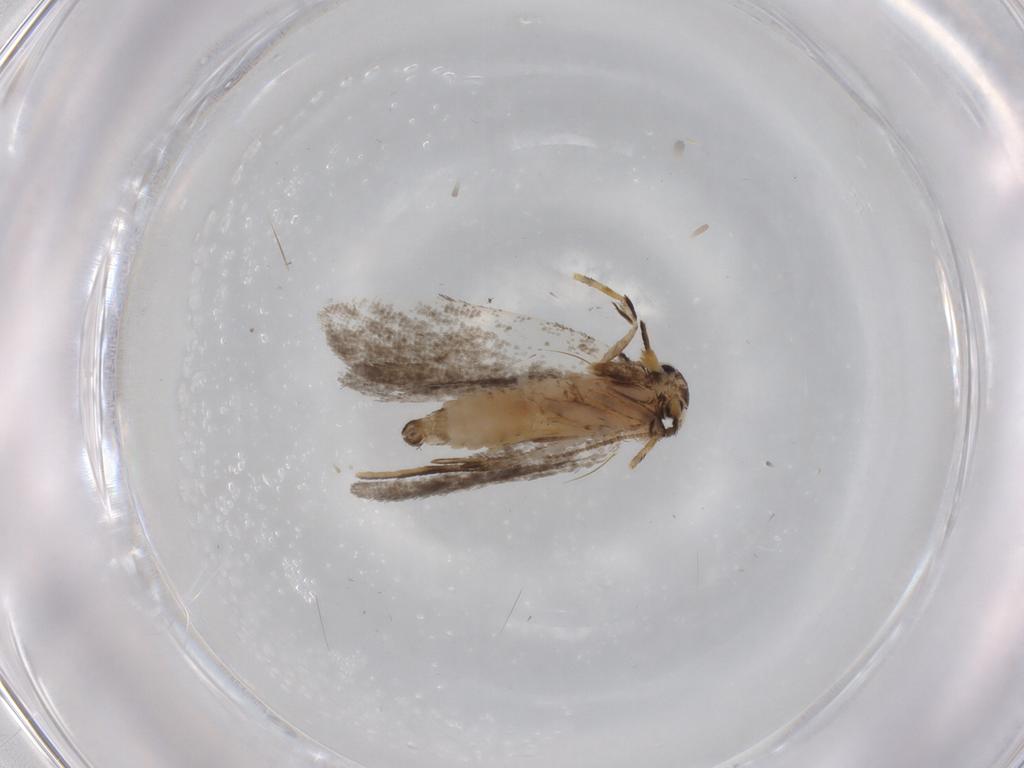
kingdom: Animalia
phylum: Arthropoda
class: Insecta
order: Lepidoptera
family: Psychidae
